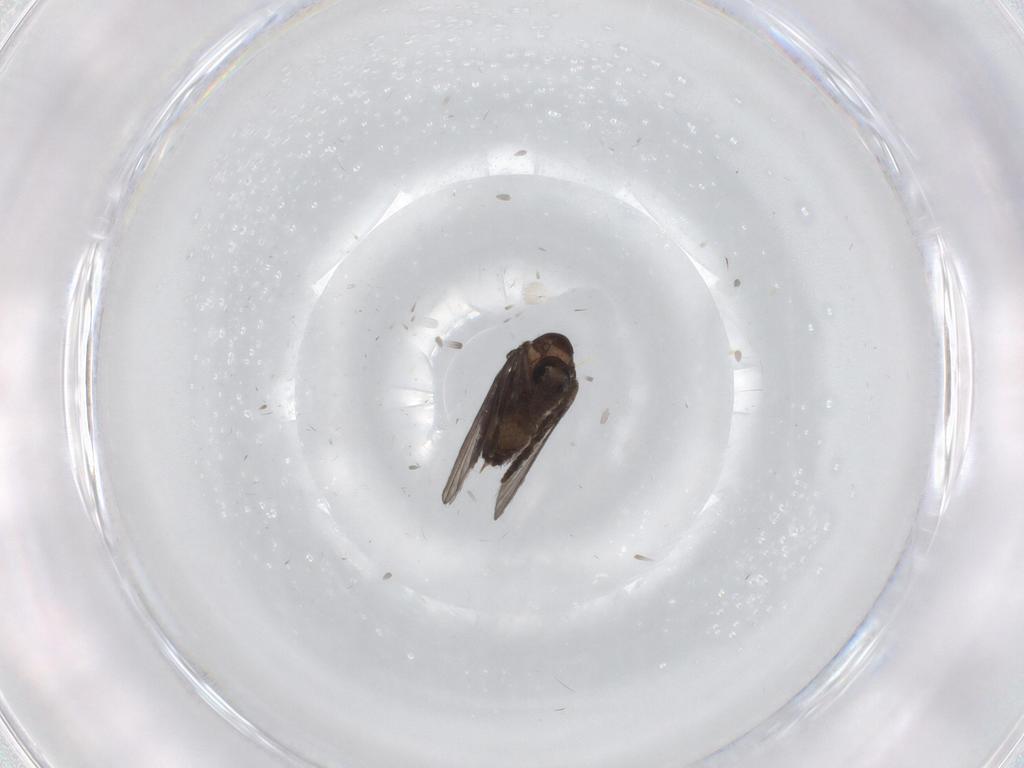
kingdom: Animalia
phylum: Arthropoda
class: Insecta
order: Diptera
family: Psychodidae
